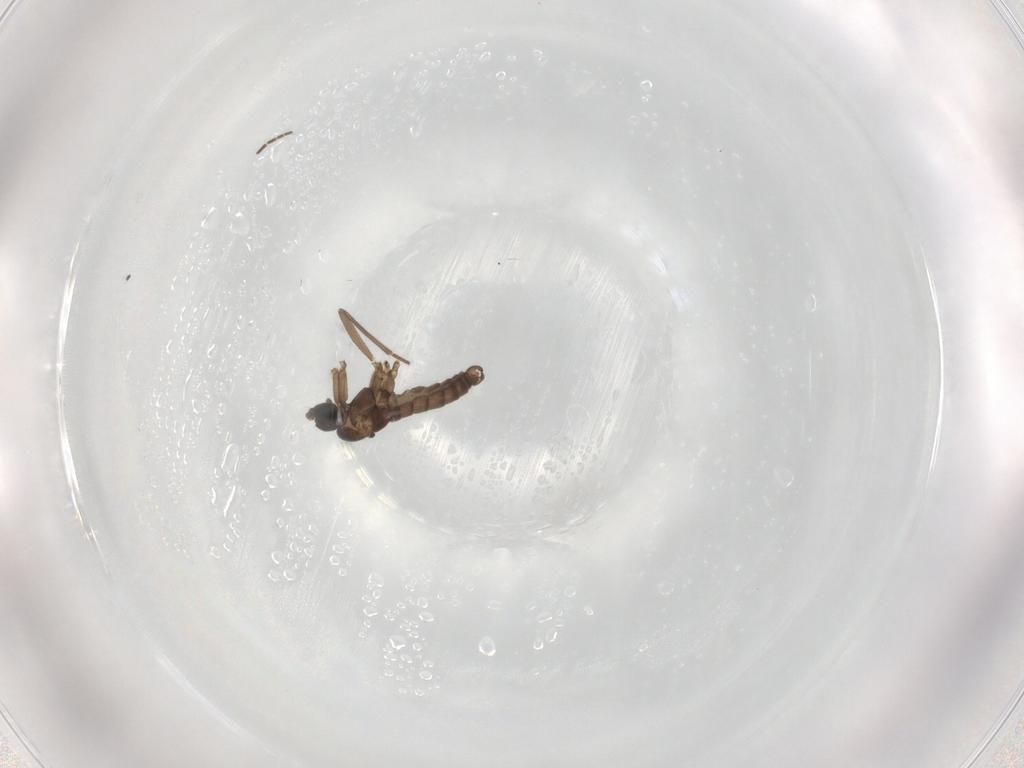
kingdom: Animalia
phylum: Arthropoda
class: Insecta
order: Diptera
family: Sciaridae
